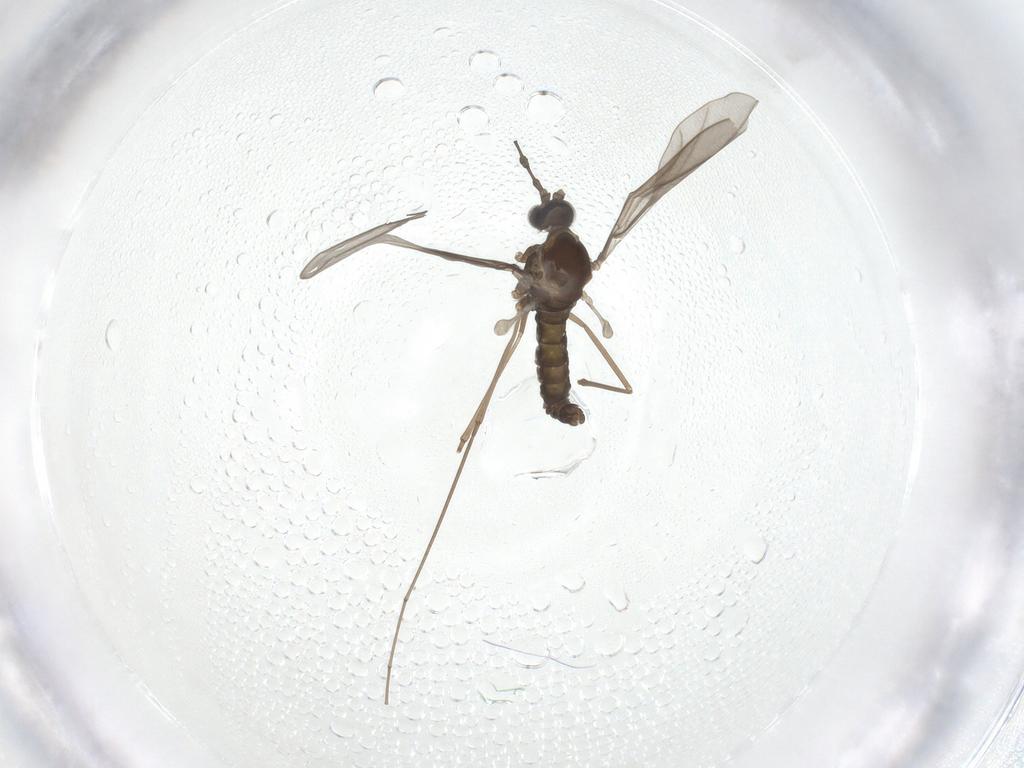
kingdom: Animalia
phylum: Arthropoda
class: Insecta
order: Diptera
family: Cecidomyiidae
